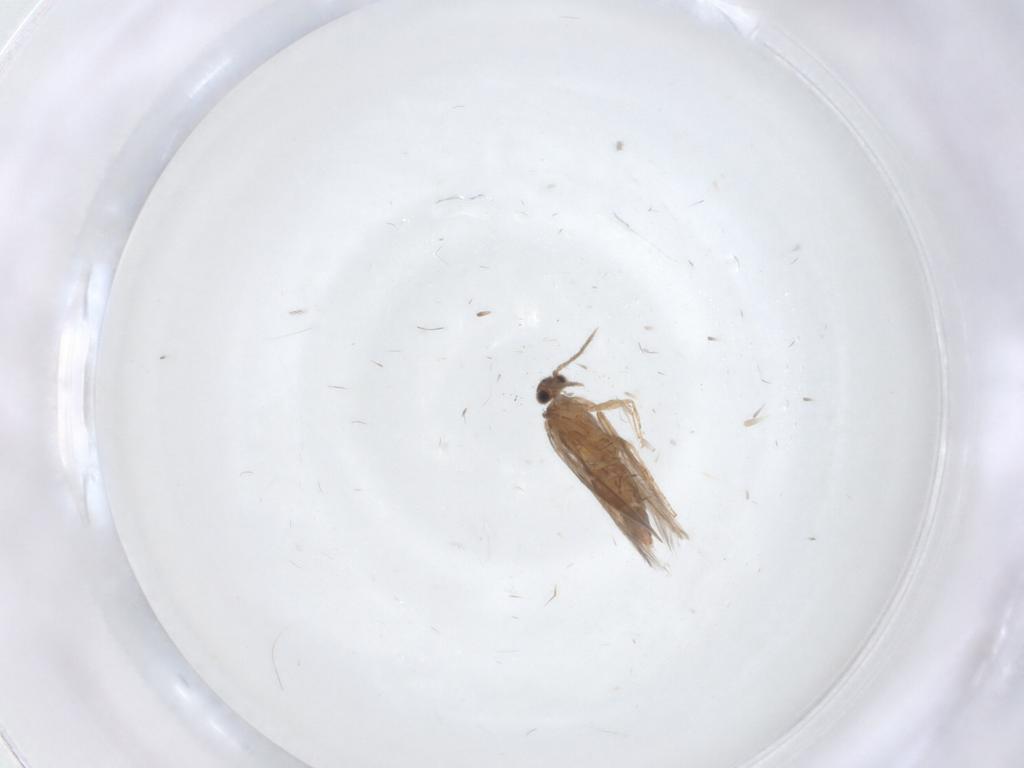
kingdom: Animalia
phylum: Arthropoda
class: Insecta
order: Trichoptera
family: Hydroptilidae
